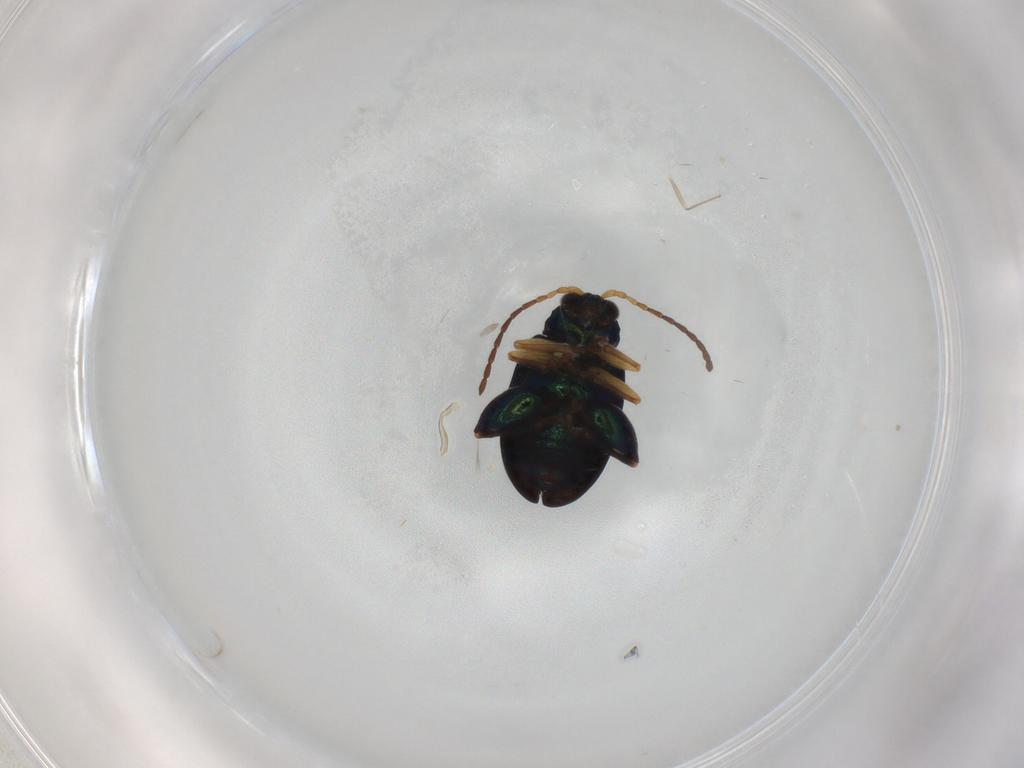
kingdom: Animalia
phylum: Arthropoda
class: Insecta
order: Coleoptera
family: Chrysomelidae
